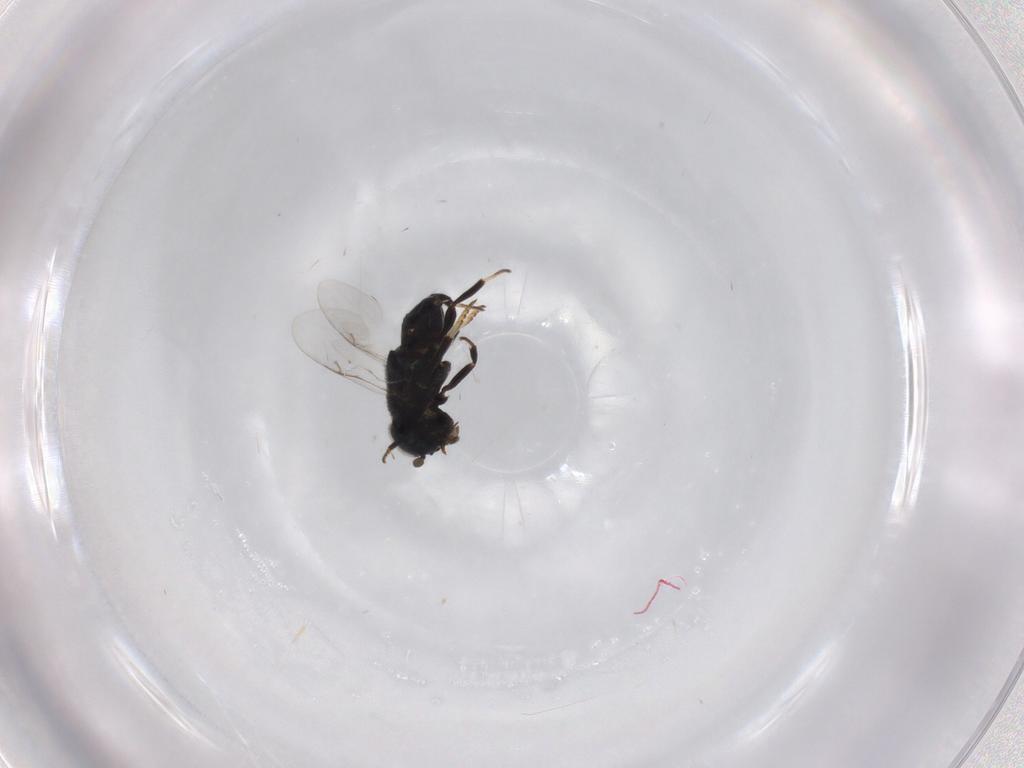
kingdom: Animalia
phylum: Arthropoda
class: Insecta
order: Hymenoptera
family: Encyrtidae
